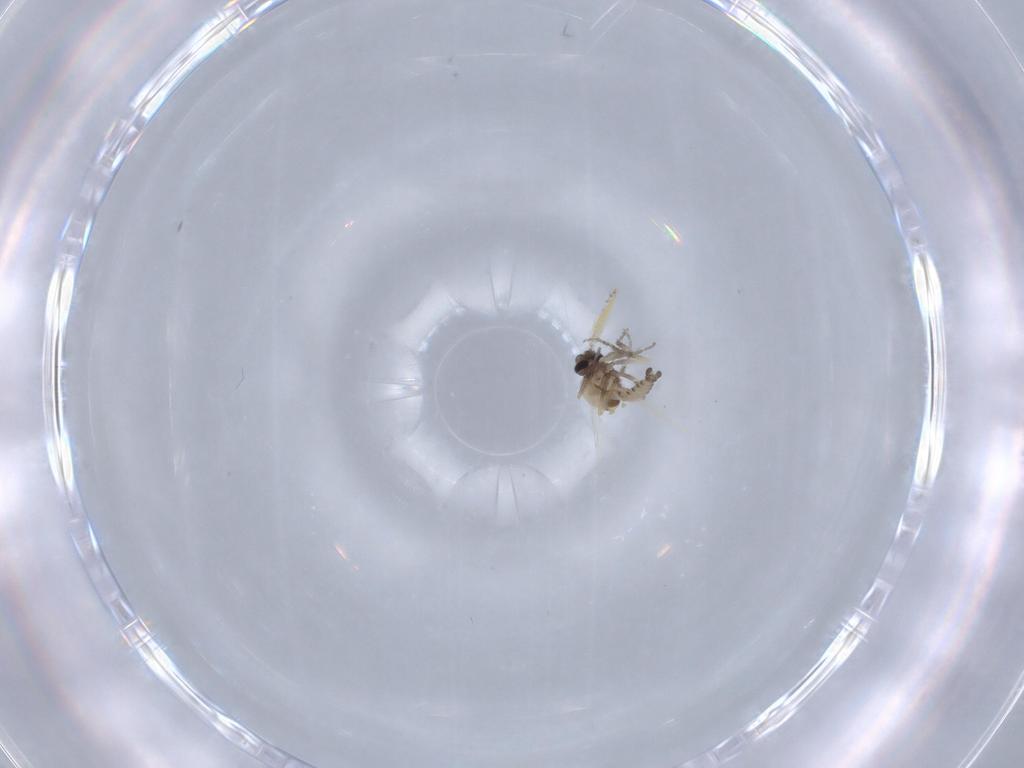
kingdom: Animalia
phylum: Arthropoda
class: Insecta
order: Diptera
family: Ceratopogonidae
